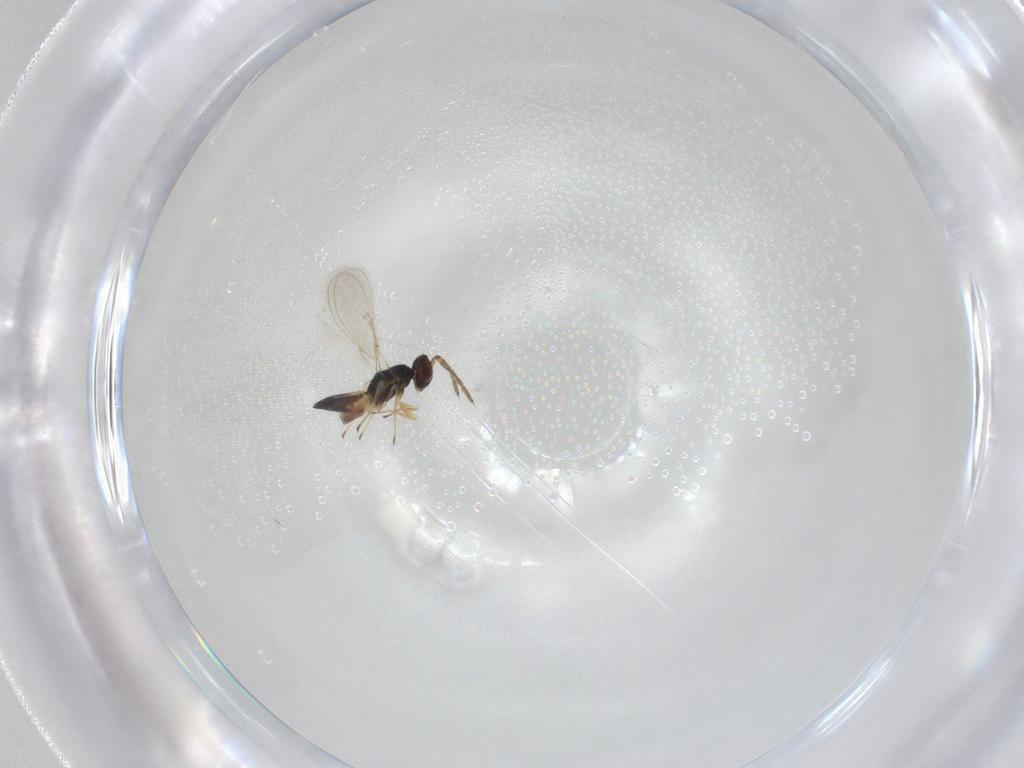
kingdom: Animalia
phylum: Arthropoda
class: Insecta
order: Hymenoptera
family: Eulophidae
